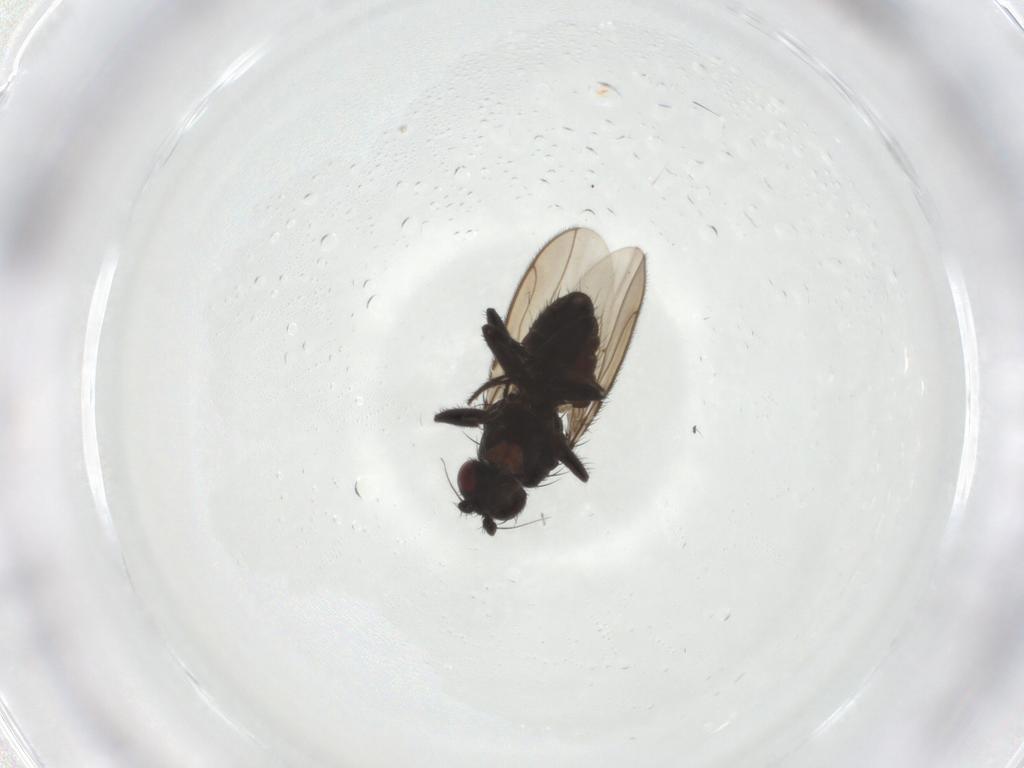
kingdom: Animalia
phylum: Arthropoda
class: Insecta
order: Diptera
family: Sphaeroceridae
